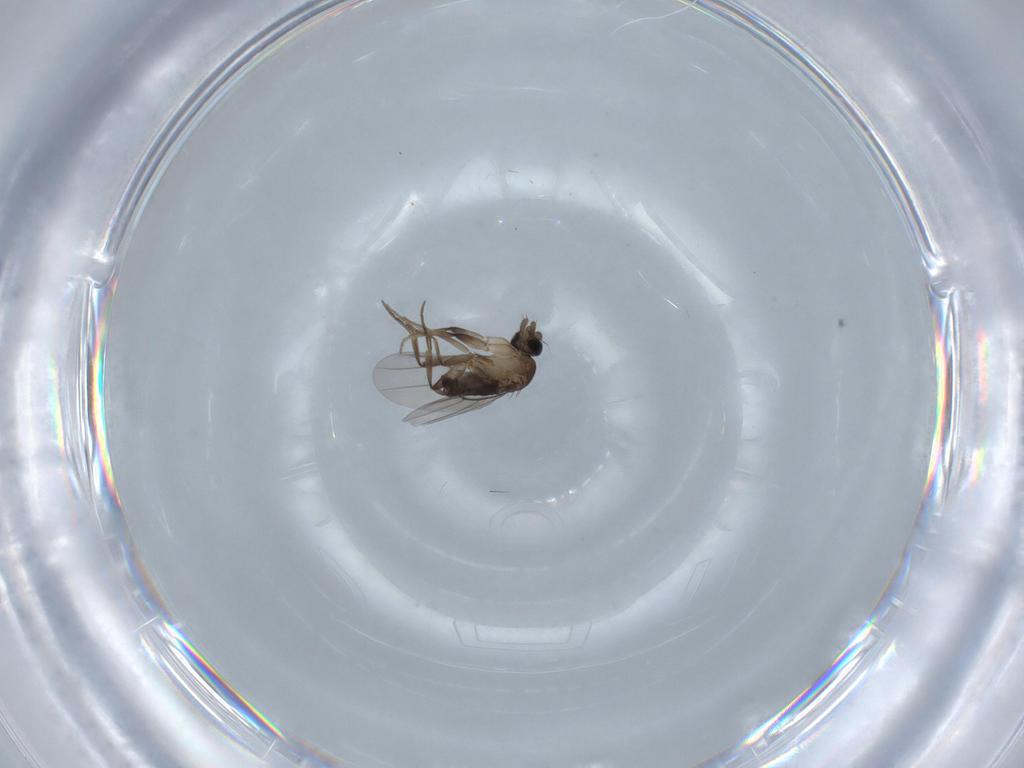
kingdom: Animalia
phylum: Arthropoda
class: Insecta
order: Diptera
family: Phoridae
